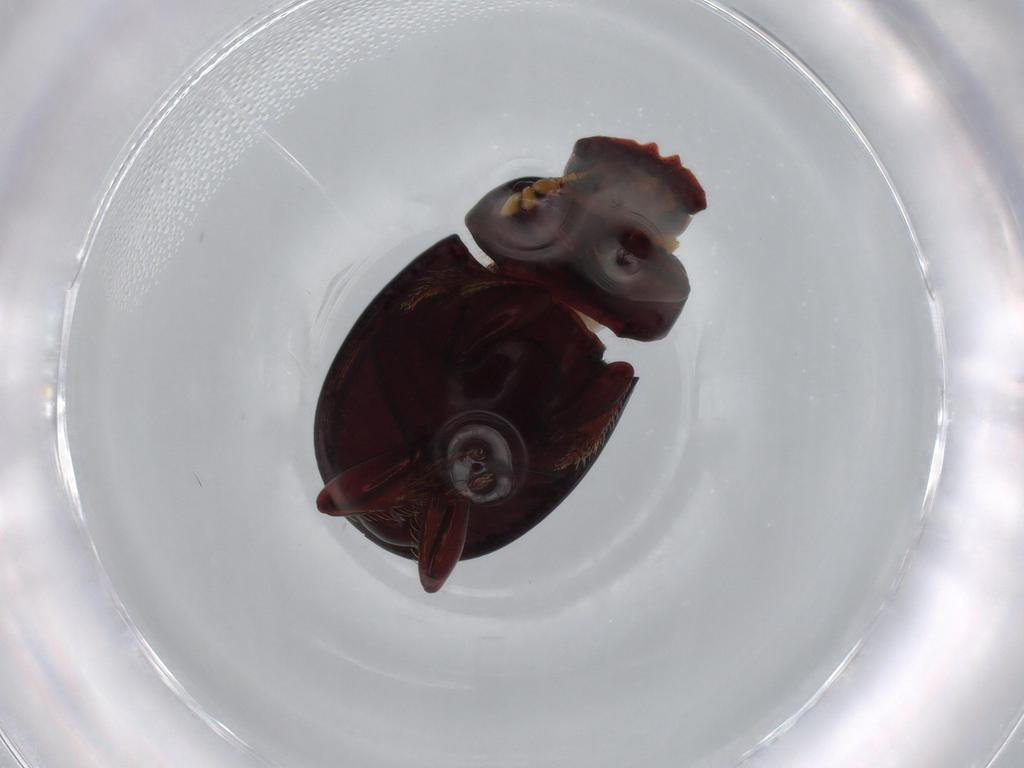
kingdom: Animalia
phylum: Arthropoda
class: Insecta
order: Coleoptera
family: Scarabaeidae
